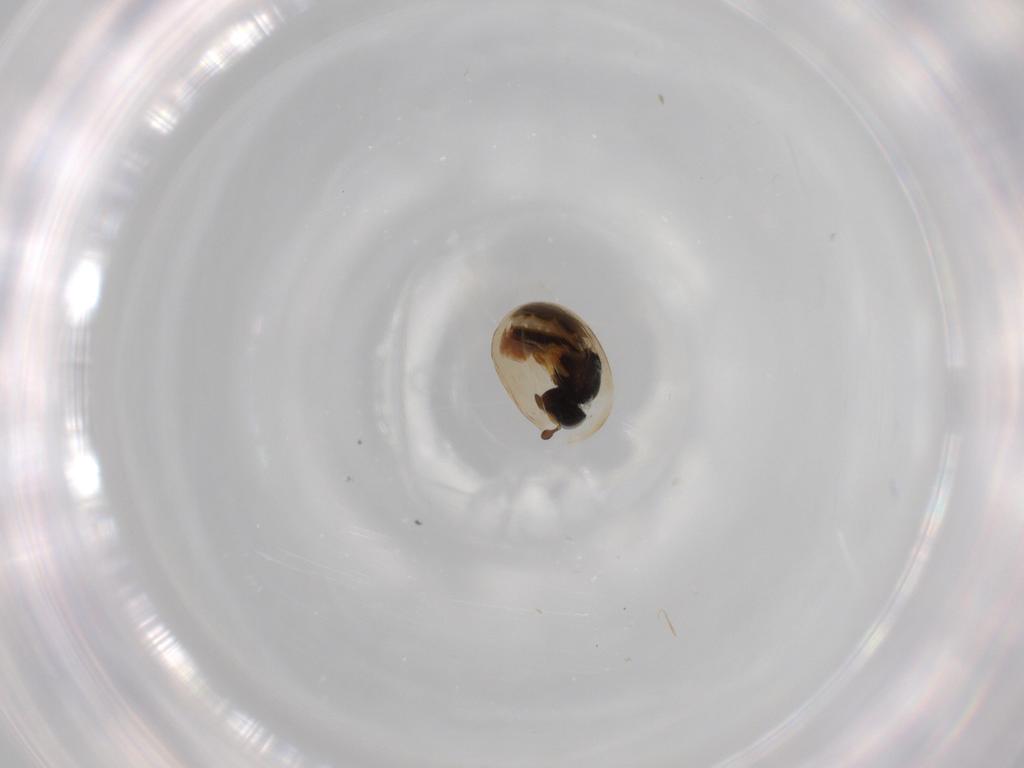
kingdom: Animalia
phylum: Arthropoda
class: Insecta
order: Hymenoptera
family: Scelionidae
